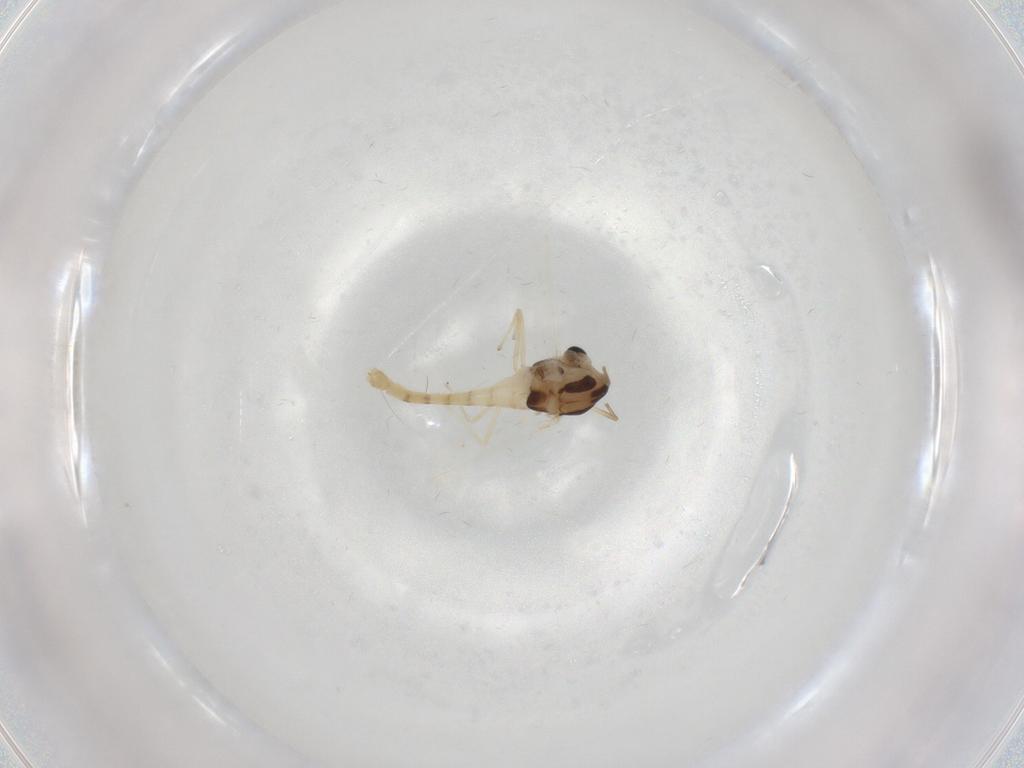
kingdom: Animalia
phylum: Arthropoda
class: Insecta
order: Diptera
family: Chironomidae
